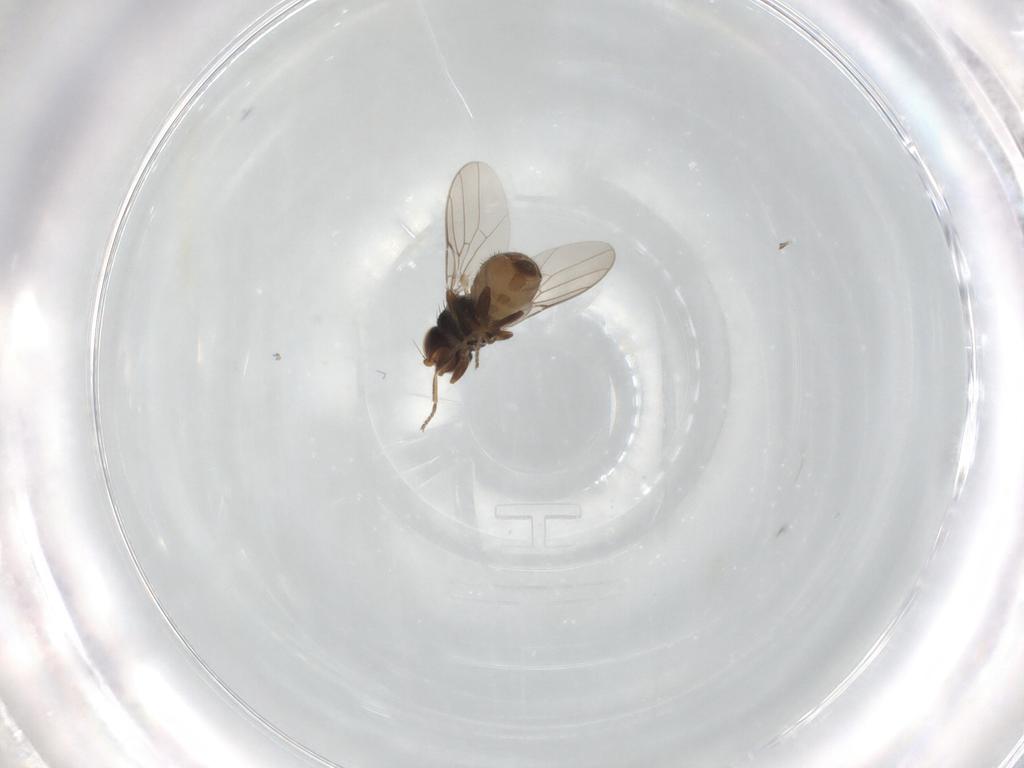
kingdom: Animalia
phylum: Arthropoda
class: Insecta
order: Diptera
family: Chloropidae
